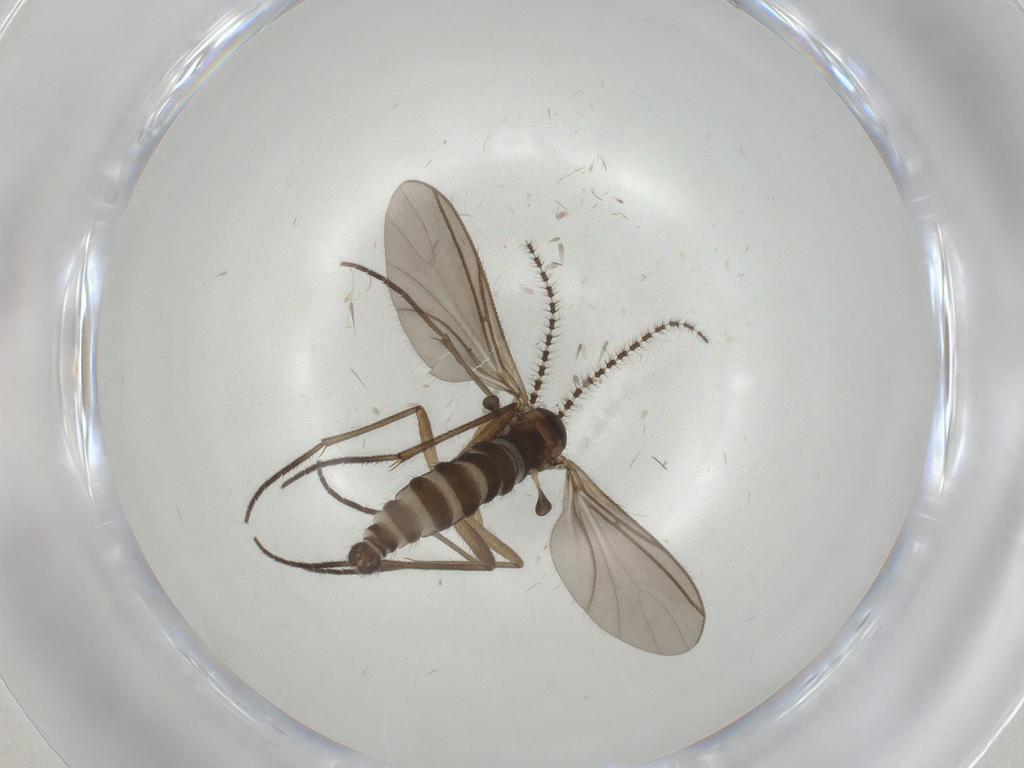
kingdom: Animalia
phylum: Arthropoda
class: Insecta
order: Diptera
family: Sciaridae
